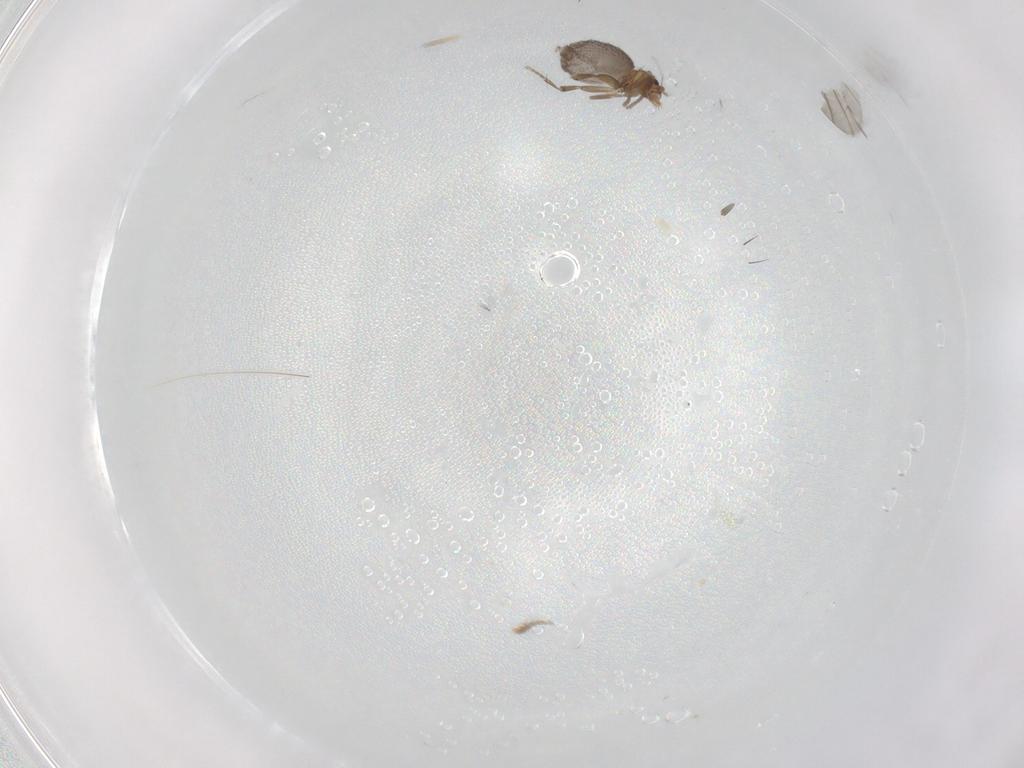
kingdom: Animalia
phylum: Arthropoda
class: Insecta
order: Diptera
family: Phoridae
